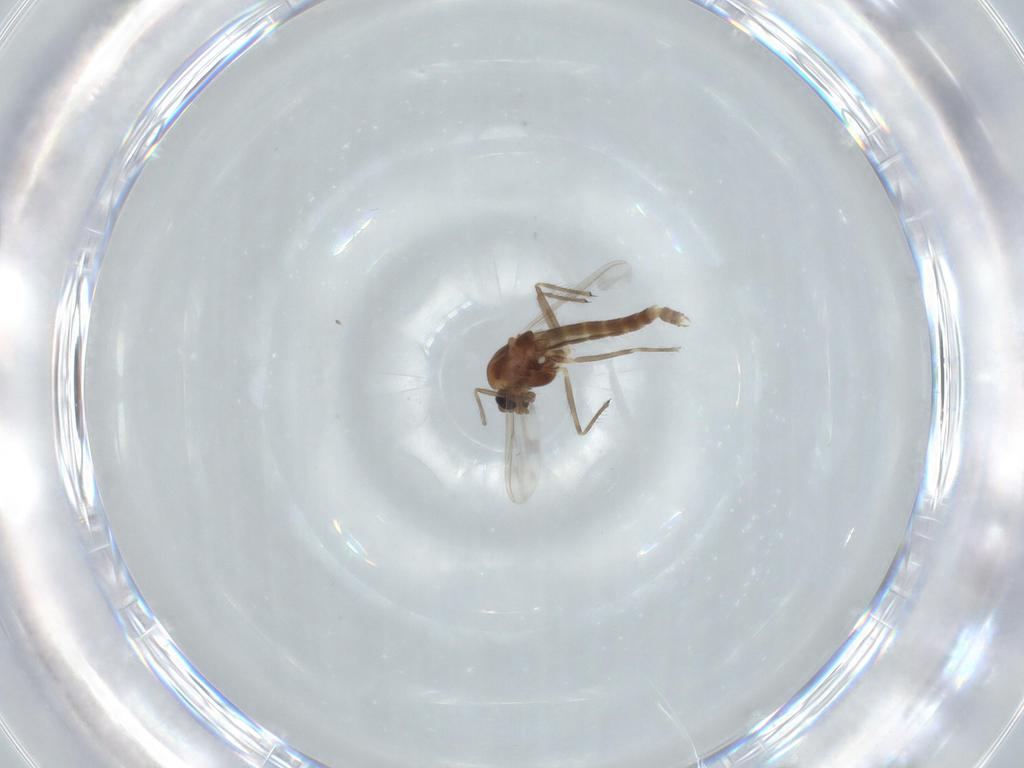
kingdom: Animalia
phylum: Arthropoda
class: Insecta
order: Diptera
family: Chironomidae
